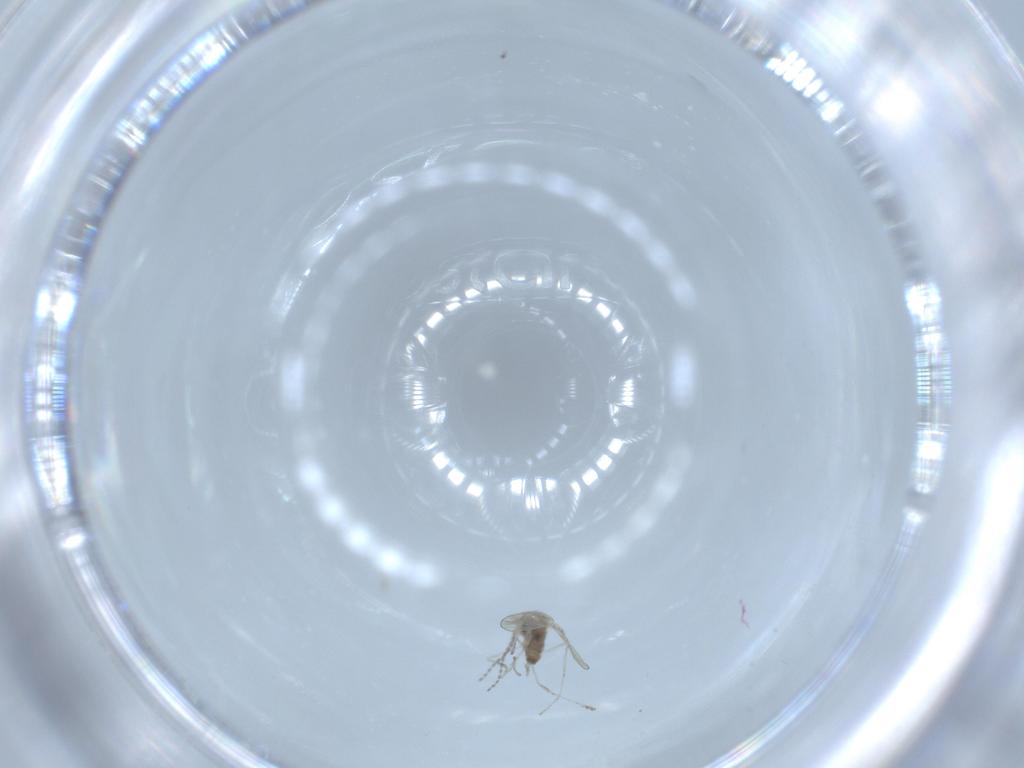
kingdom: Animalia
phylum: Arthropoda
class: Insecta
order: Diptera
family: Cecidomyiidae
